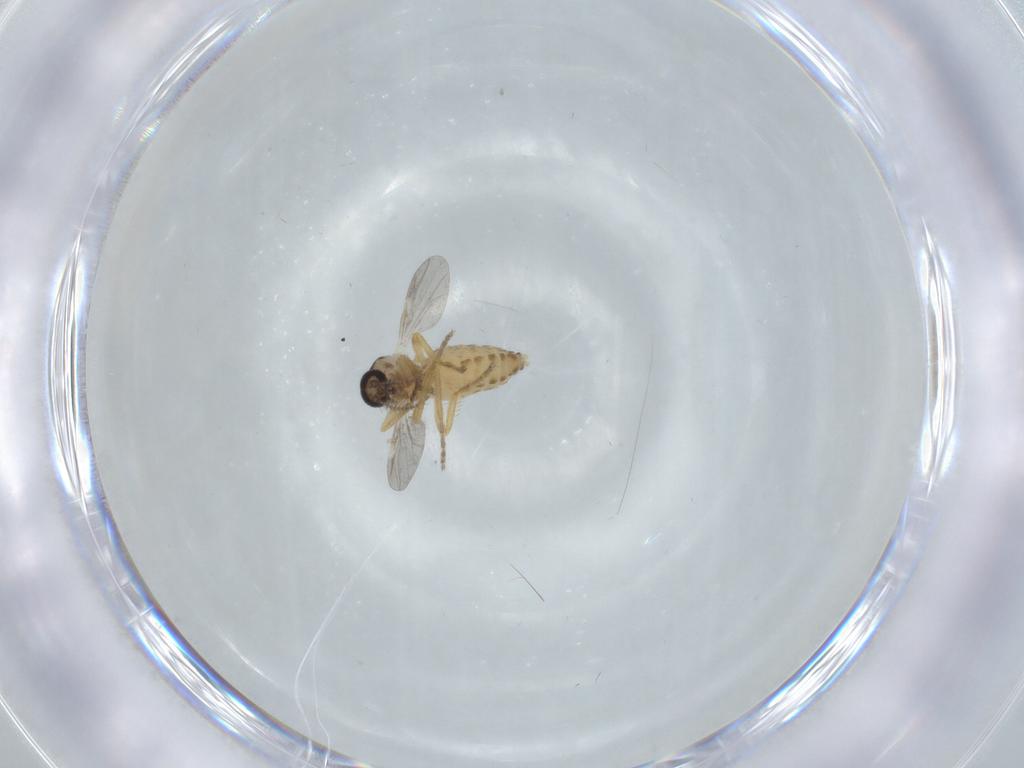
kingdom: Animalia
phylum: Arthropoda
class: Insecta
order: Diptera
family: Ceratopogonidae
